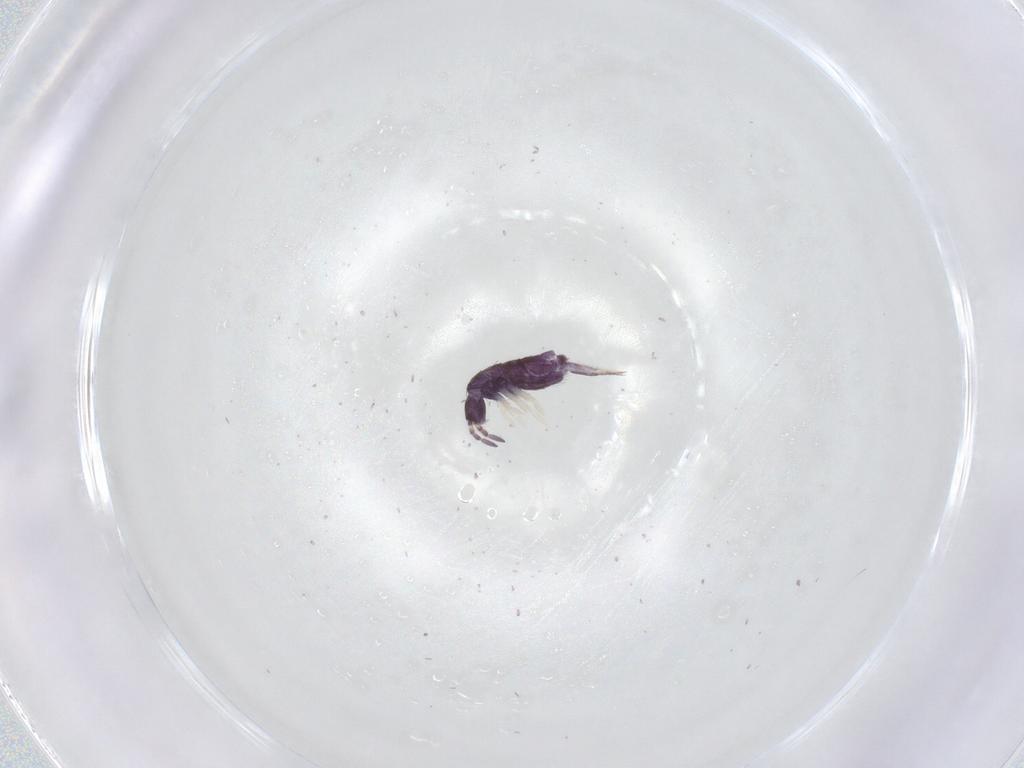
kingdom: Animalia
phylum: Arthropoda
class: Collembola
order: Entomobryomorpha
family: Entomobryidae
